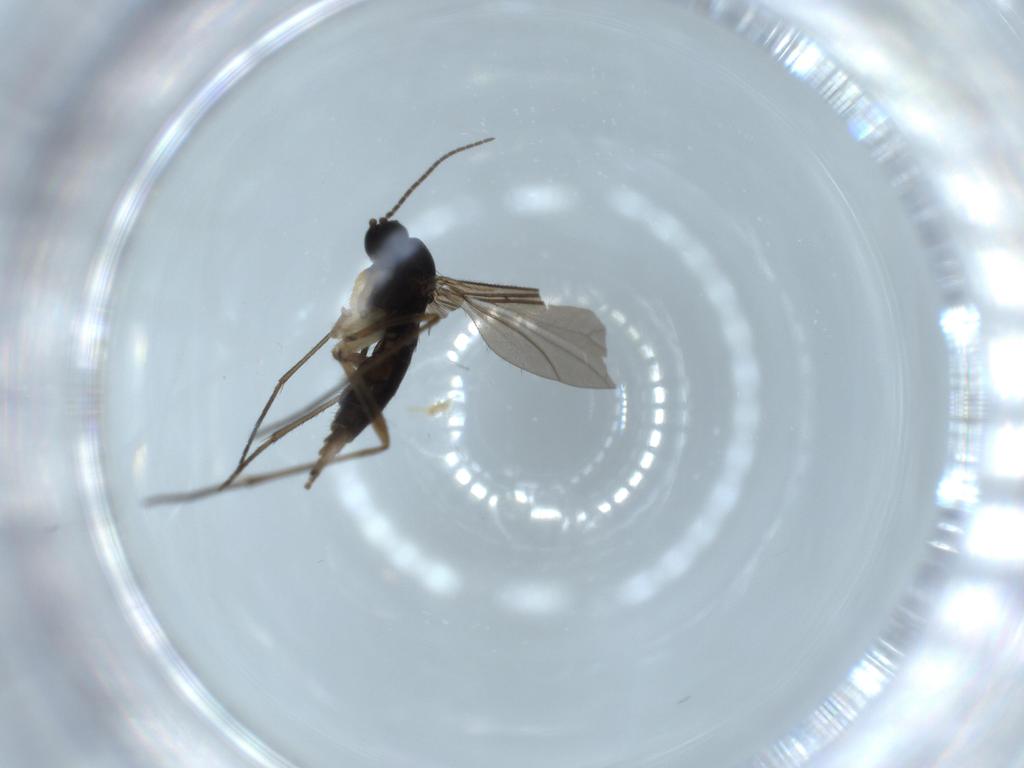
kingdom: Animalia
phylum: Arthropoda
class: Insecta
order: Diptera
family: Sciaridae
